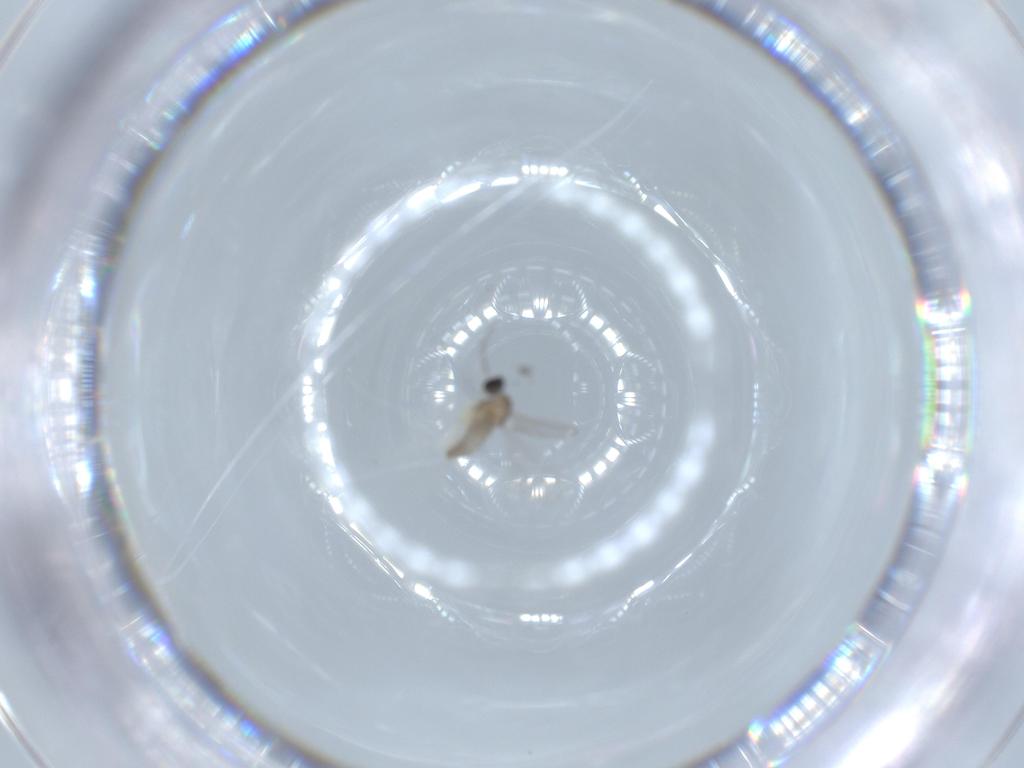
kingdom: Animalia
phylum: Arthropoda
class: Insecta
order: Diptera
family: Cecidomyiidae
